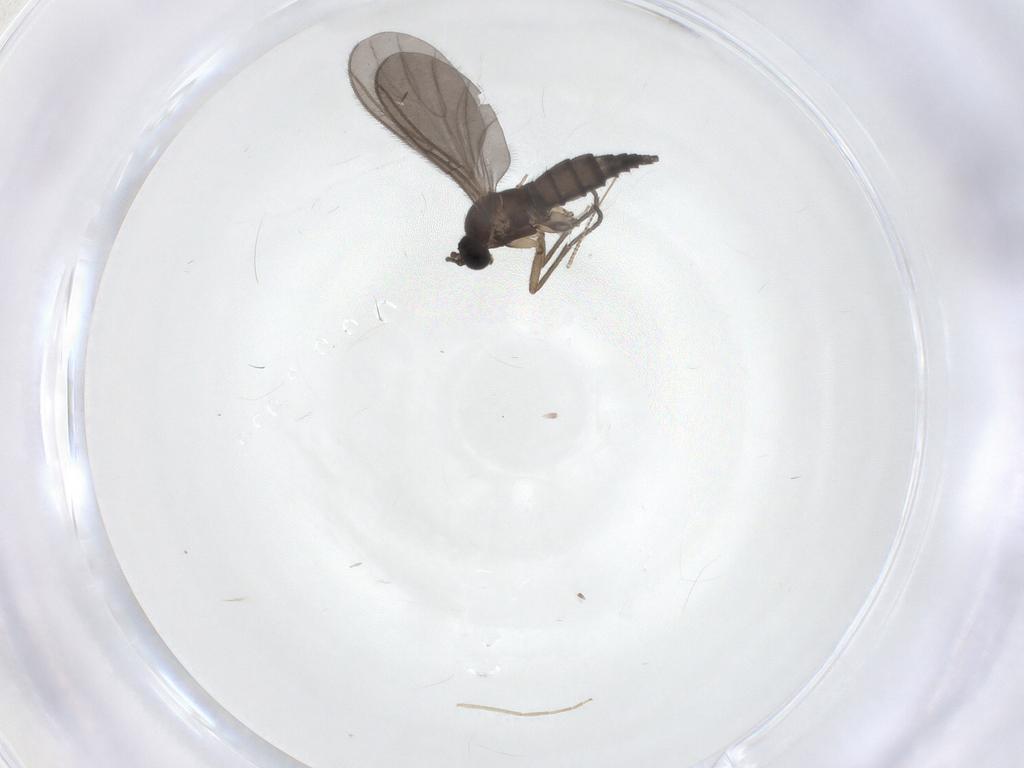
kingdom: Animalia
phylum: Arthropoda
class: Insecta
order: Diptera
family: Sciaridae
